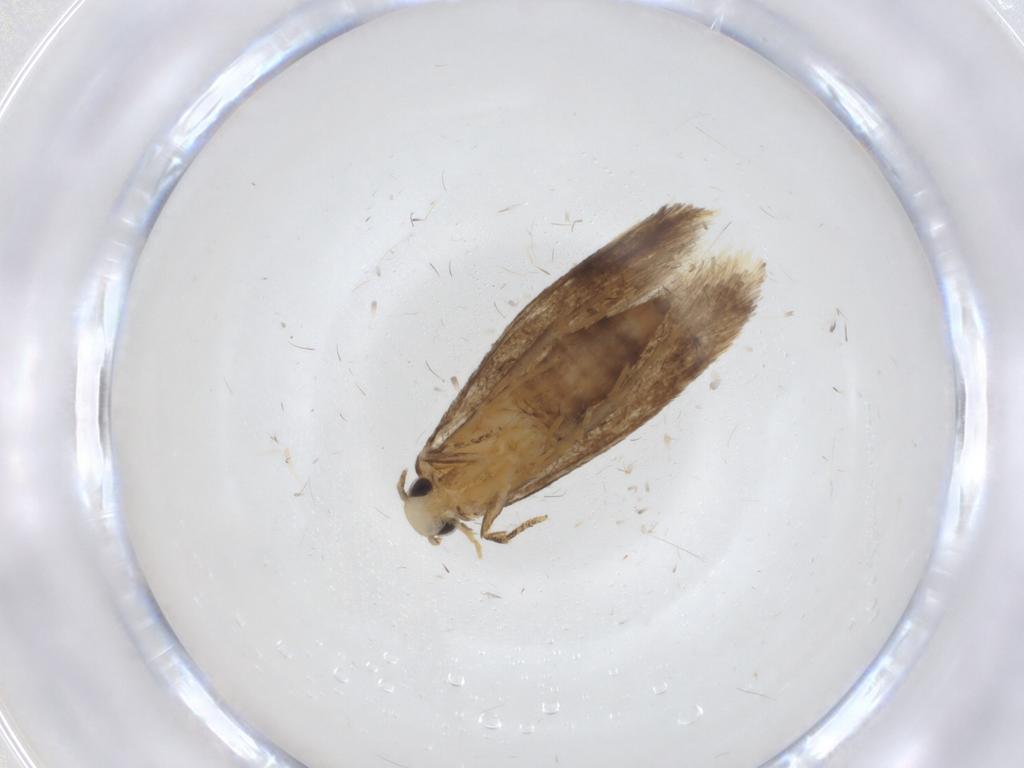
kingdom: Animalia
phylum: Arthropoda
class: Insecta
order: Lepidoptera
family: Tineidae
